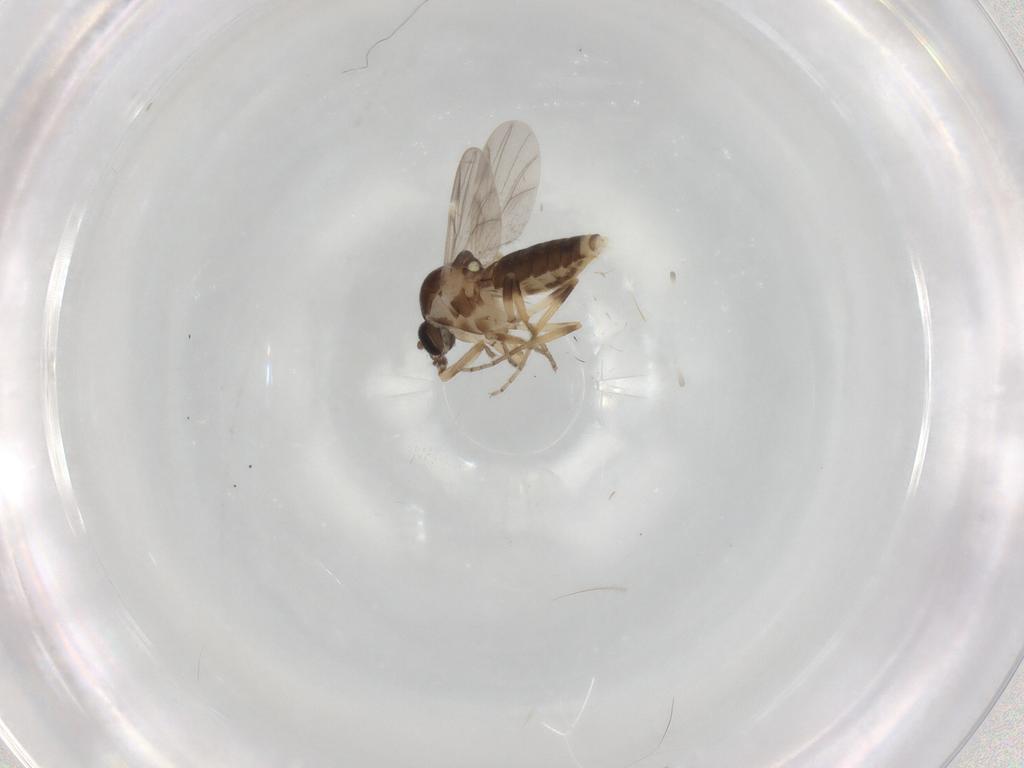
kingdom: Animalia
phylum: Arthropoda
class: Insecta
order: Diptera
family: Ceratopogonidae
